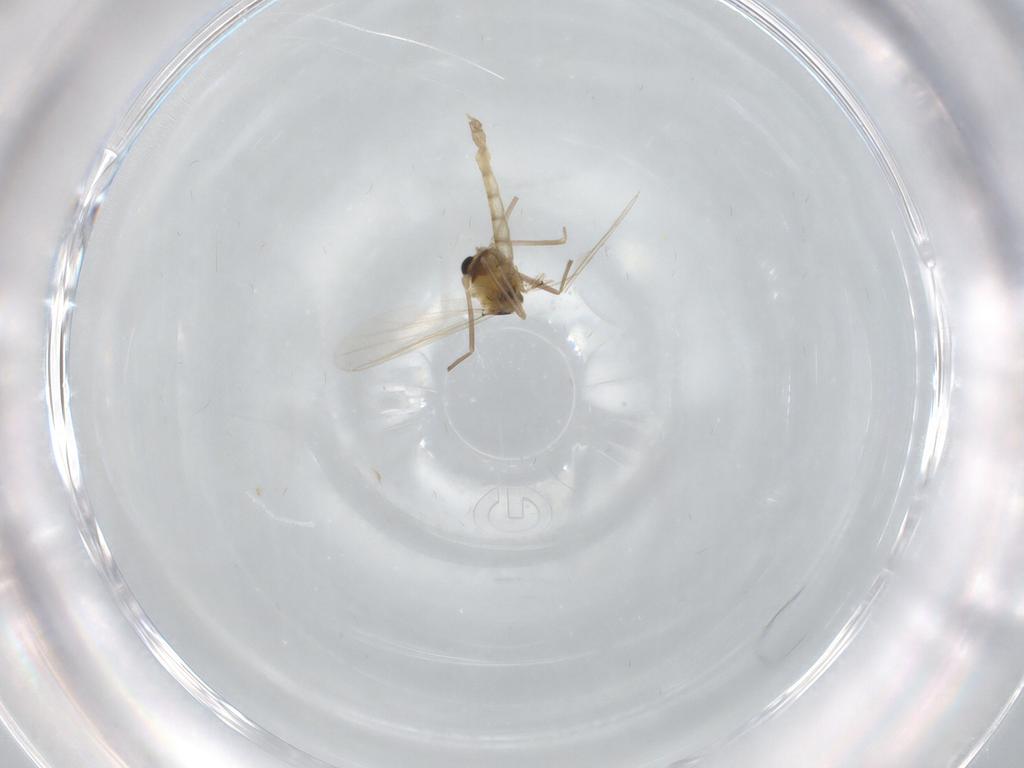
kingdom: Animalia
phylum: Arthropoda
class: Insecta
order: Diptera
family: Chironomidae
